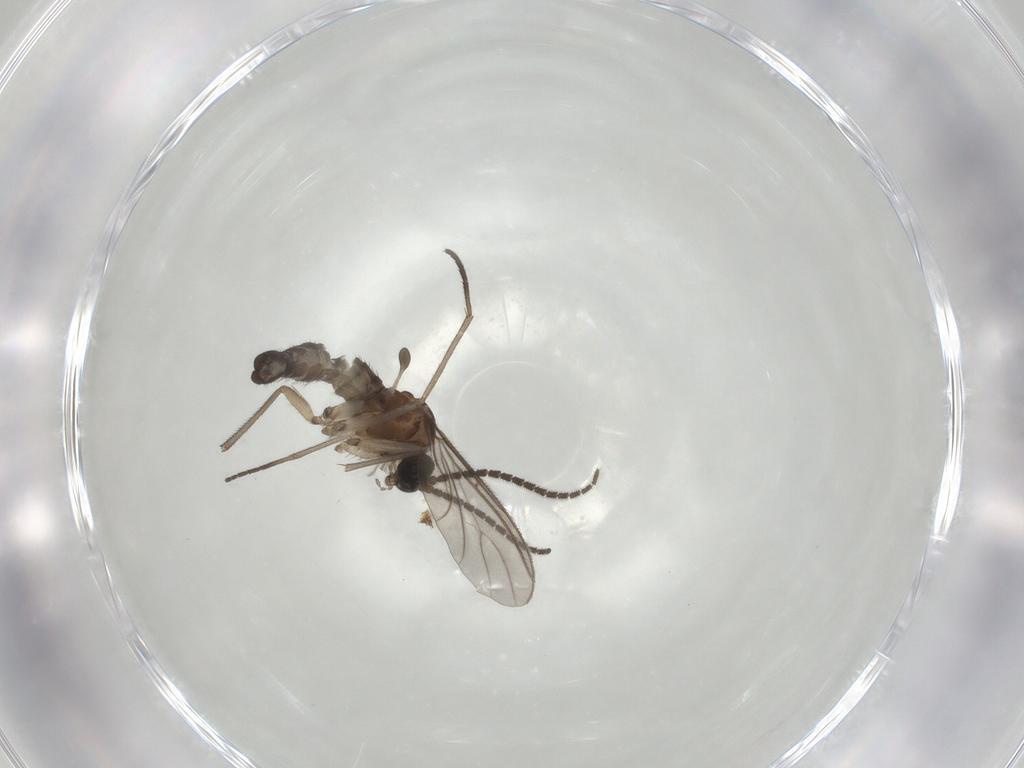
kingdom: Animalia
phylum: Arthropoda
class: Insecta
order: Diptera
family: Sciaridae
